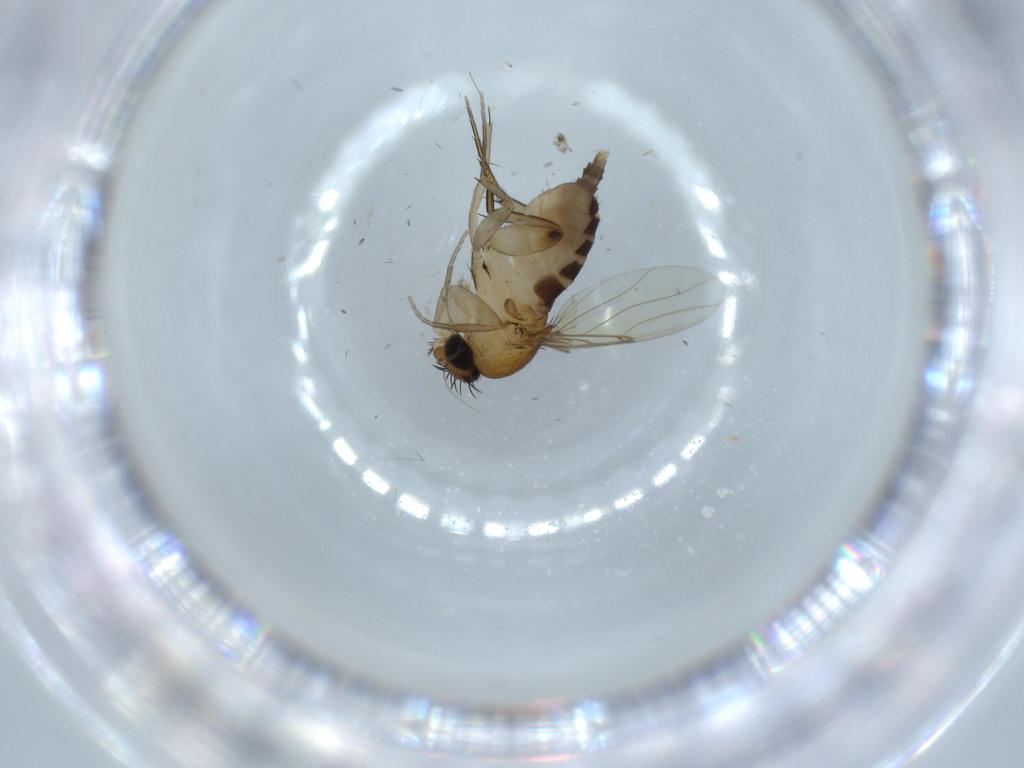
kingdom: Animalia
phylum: Arthropoda
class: Insecta
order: Diptera
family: Phoridae
